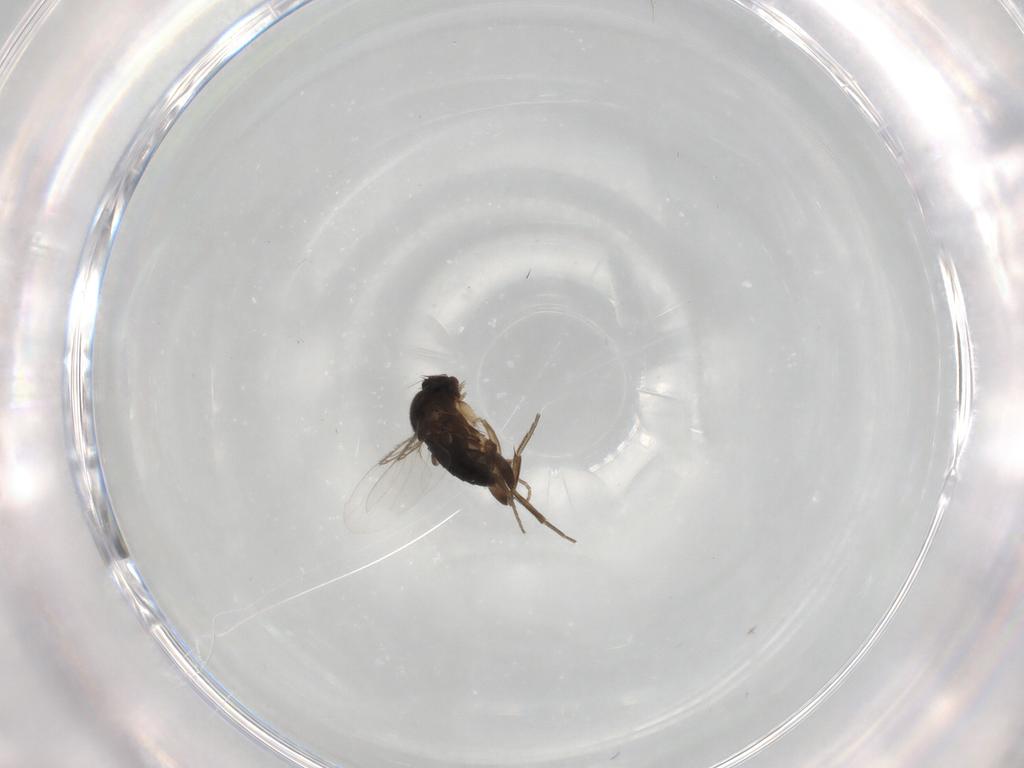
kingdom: Animalia
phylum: Arthropoda
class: Insecta
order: Diptera
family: Phoridae
